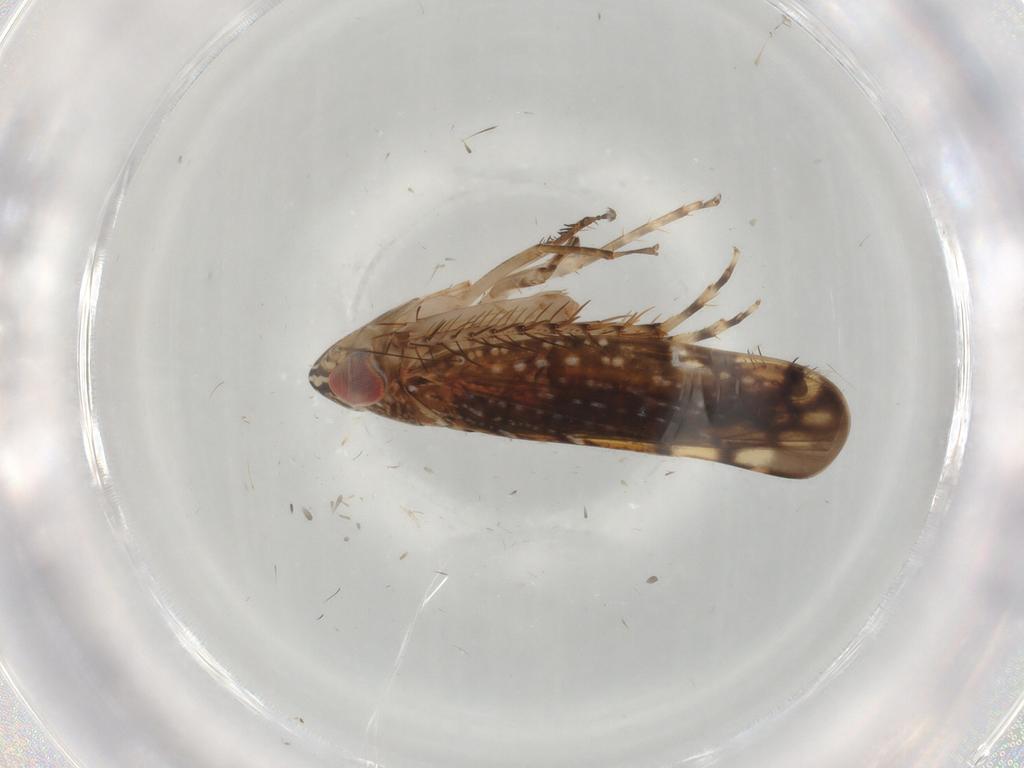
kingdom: Animalia
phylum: Arthropoda
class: Insecta
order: Hemiptera
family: Cicadellidae
